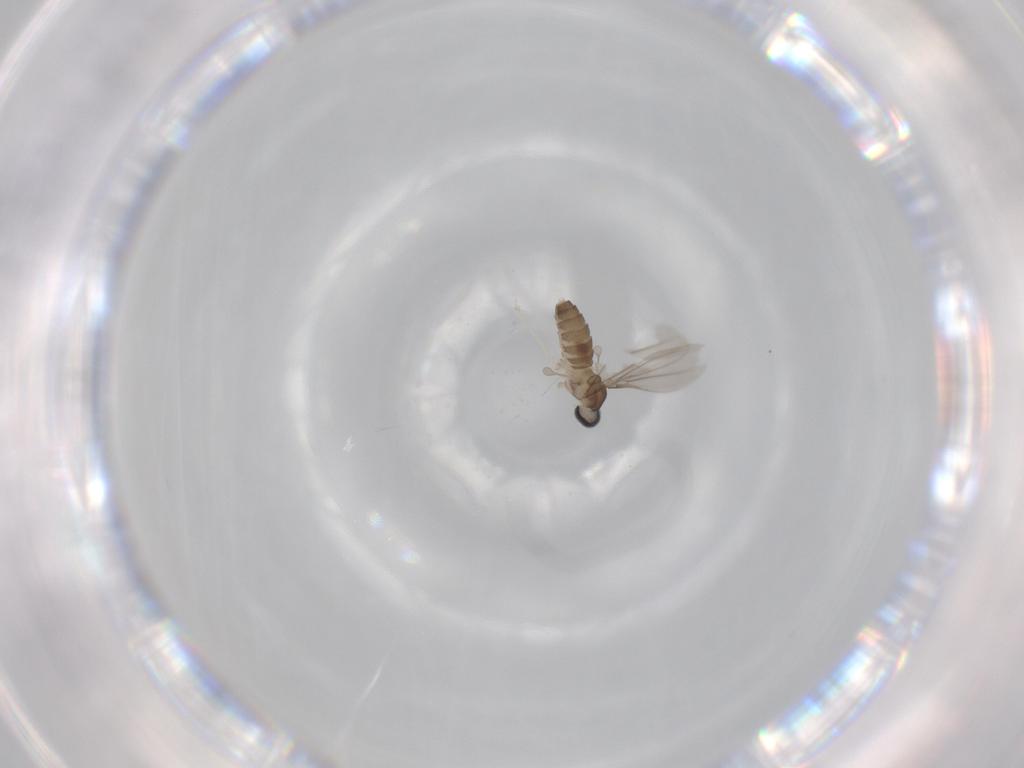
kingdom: Animalia
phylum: Arthropoda
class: Insecta
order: Diptera
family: Cecidomyiidae
